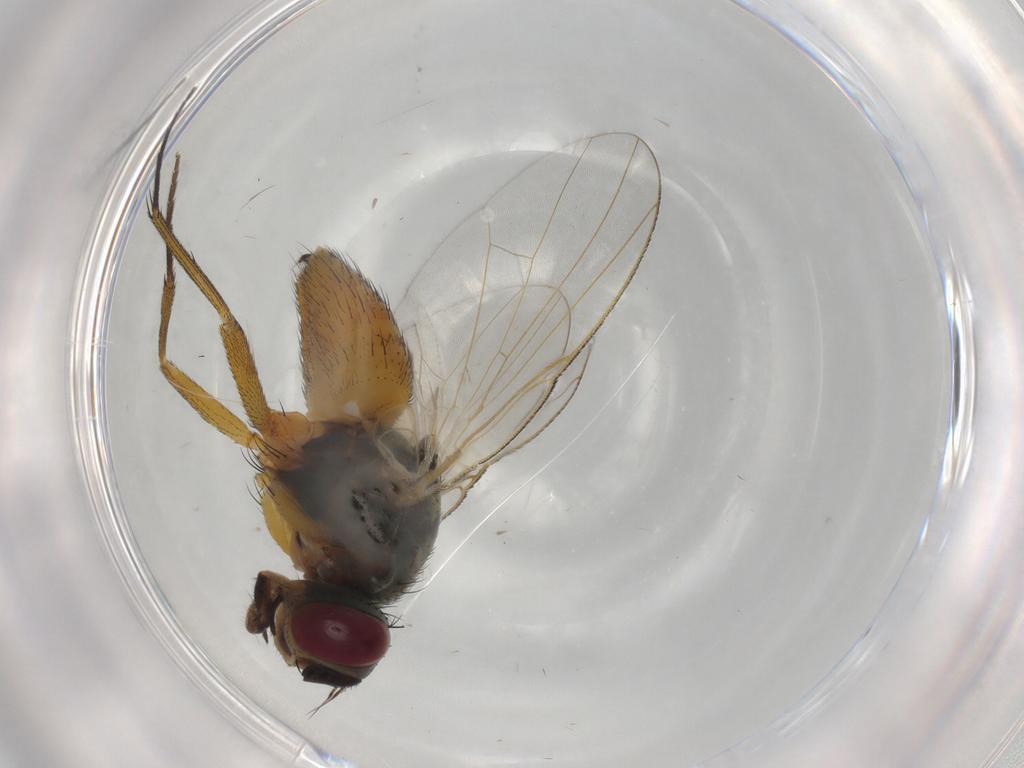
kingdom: Animalia
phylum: Arthropoda
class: Insecta
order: Diptera
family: Muscidae
